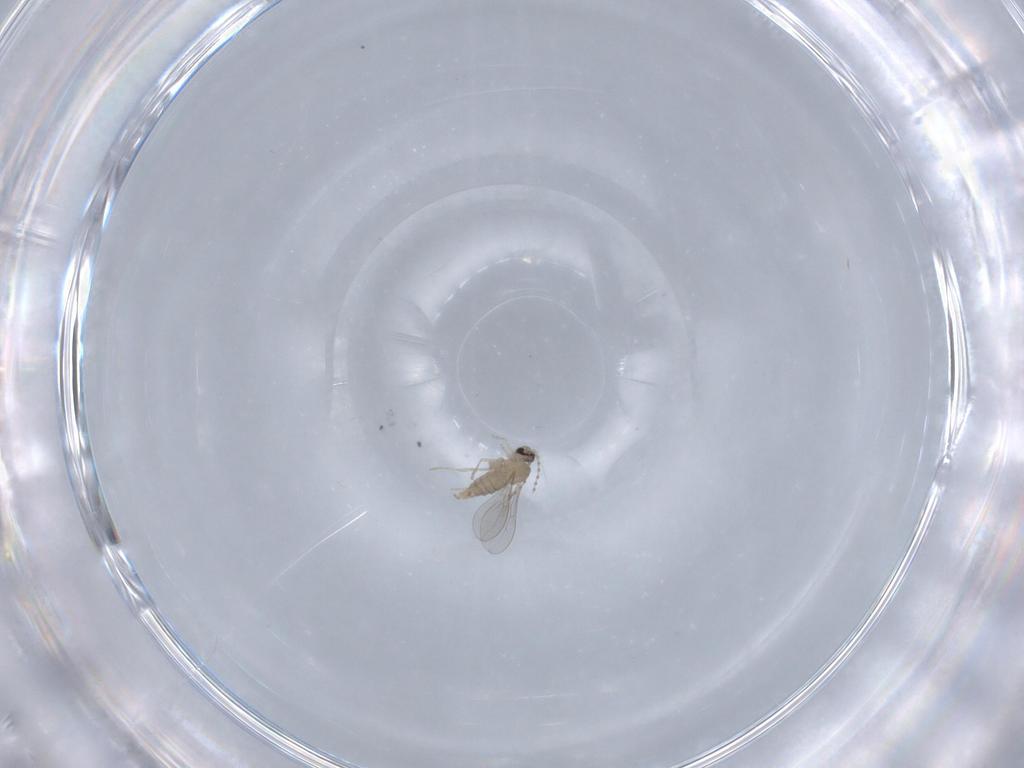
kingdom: Animalia
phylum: Arthropoda
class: Insecta
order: Diptera
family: Cecidomyiidae
